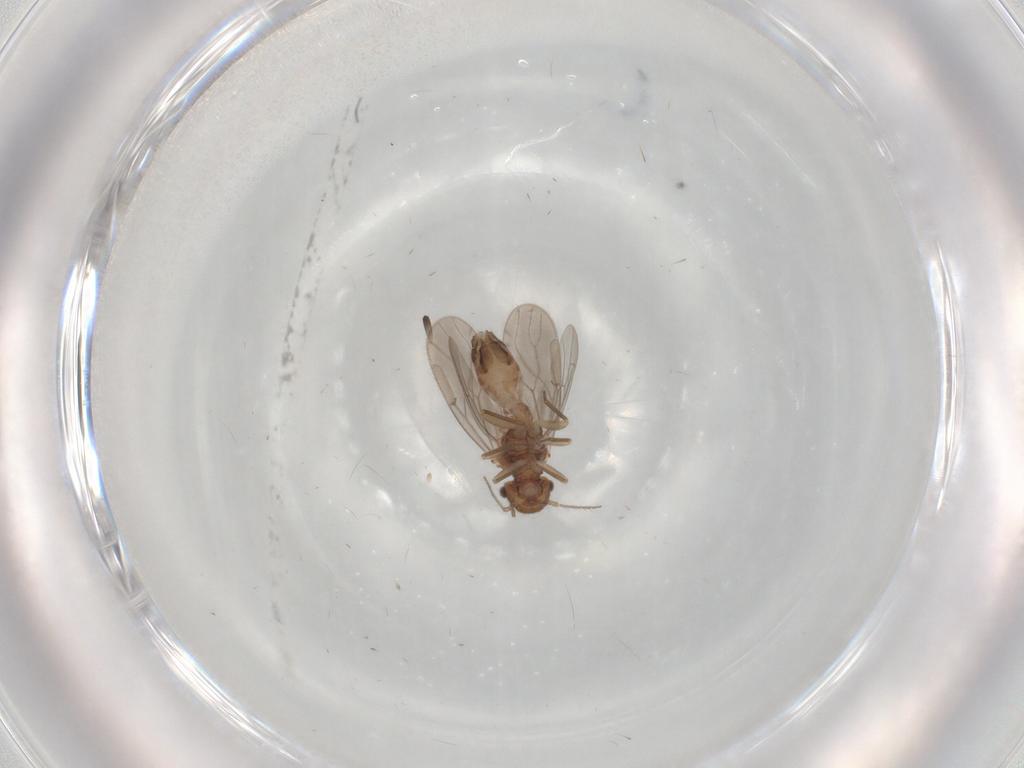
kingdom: Animalia
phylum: Arthropoda
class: Insecta
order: Psocodea
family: Ectopsocidae
